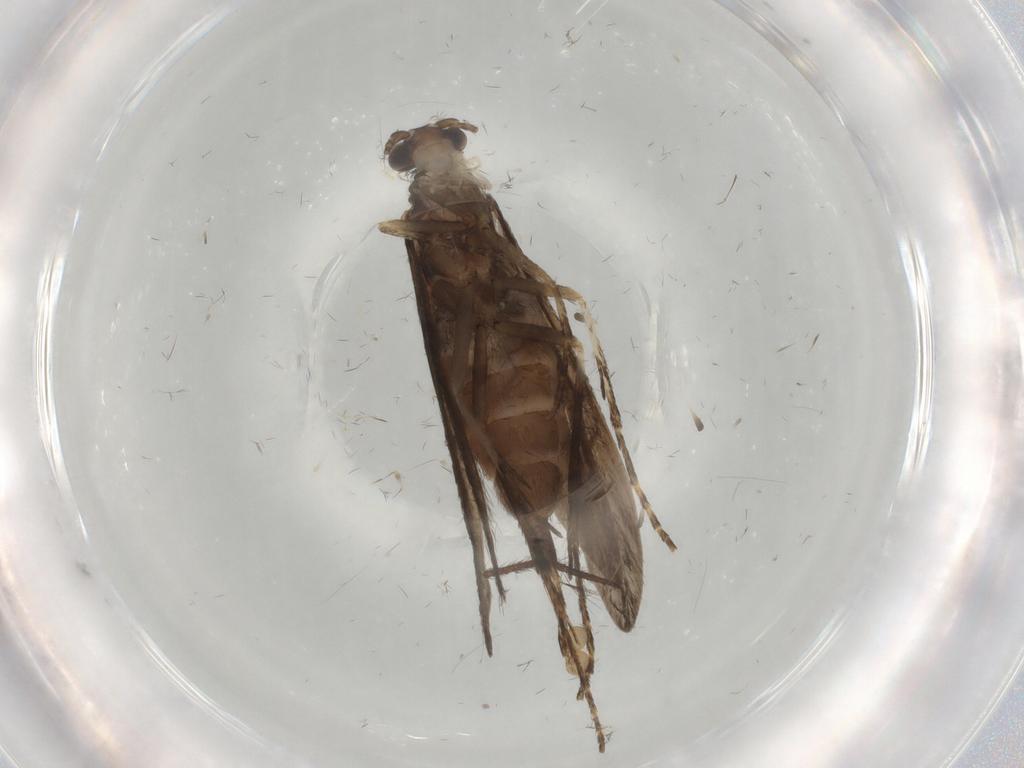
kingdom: Animalia
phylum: Arthropoda
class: Insecta
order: Trichoptera
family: Xiphocentronidae
